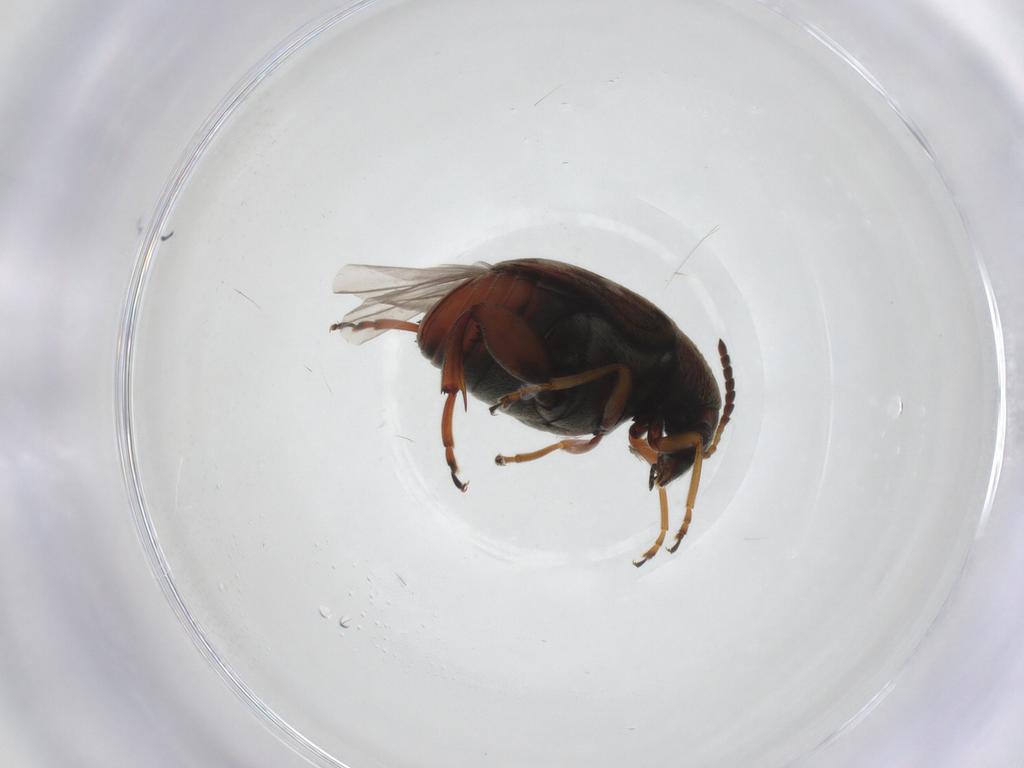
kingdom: Animalia
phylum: Arthropoda
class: Insecta
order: Coleoptera
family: Chrysomelidae
